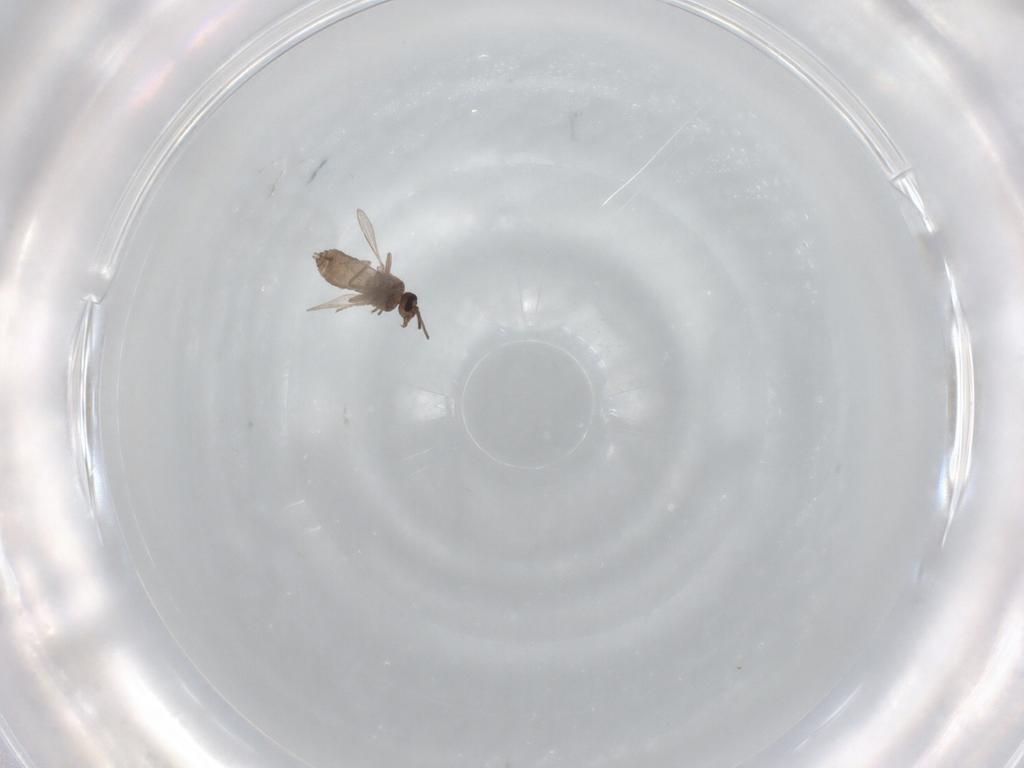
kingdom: Animalia
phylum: Arthropoda
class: Insecta
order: Diptera
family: Ceratopogonidae
